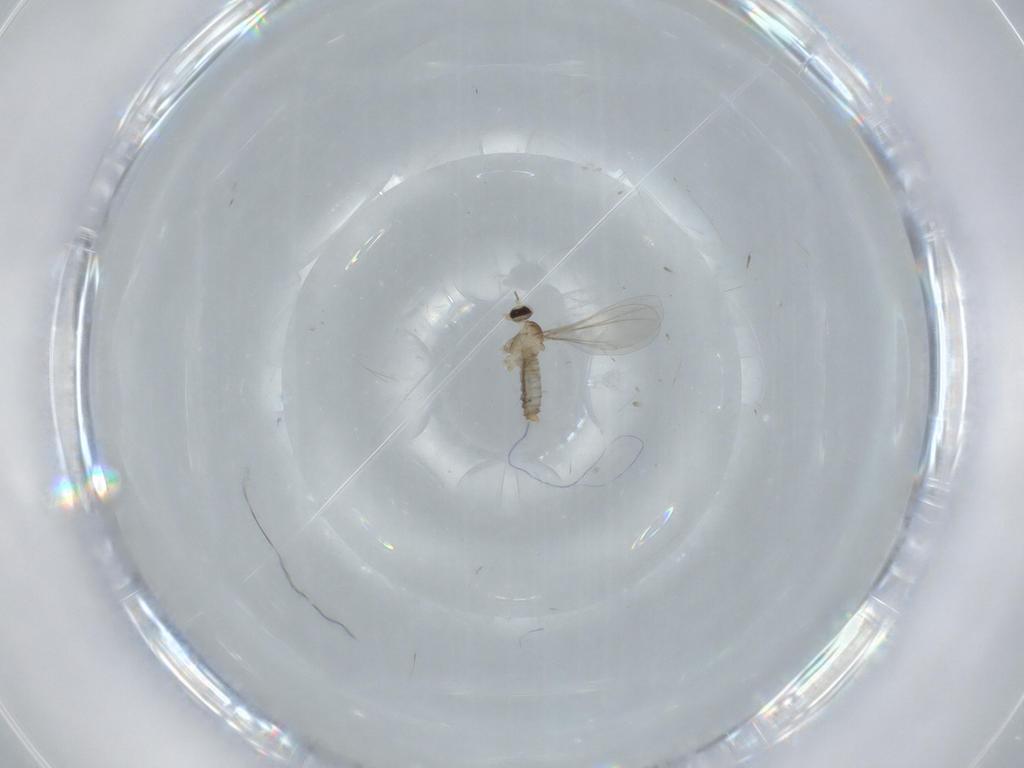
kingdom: Animalia
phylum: Arthropoda
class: Insecta
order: Diptera
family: Cecidomyiidae
